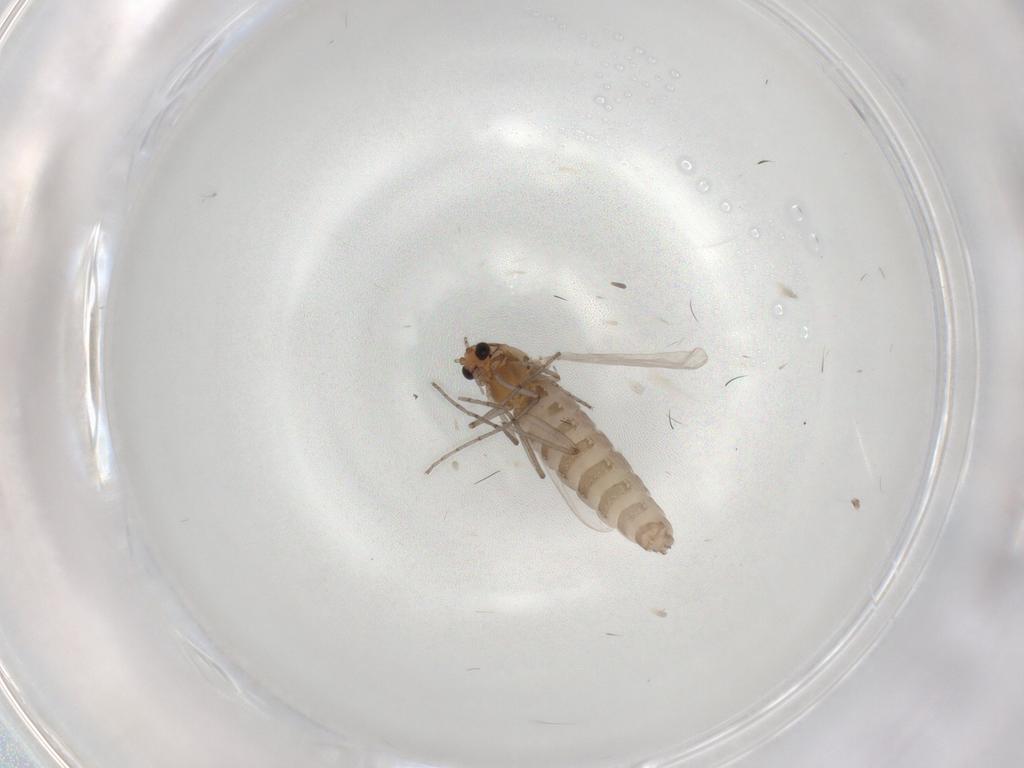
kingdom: Animalia
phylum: Arthropoda
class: Insecta
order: Diptera
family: Chironomidae
